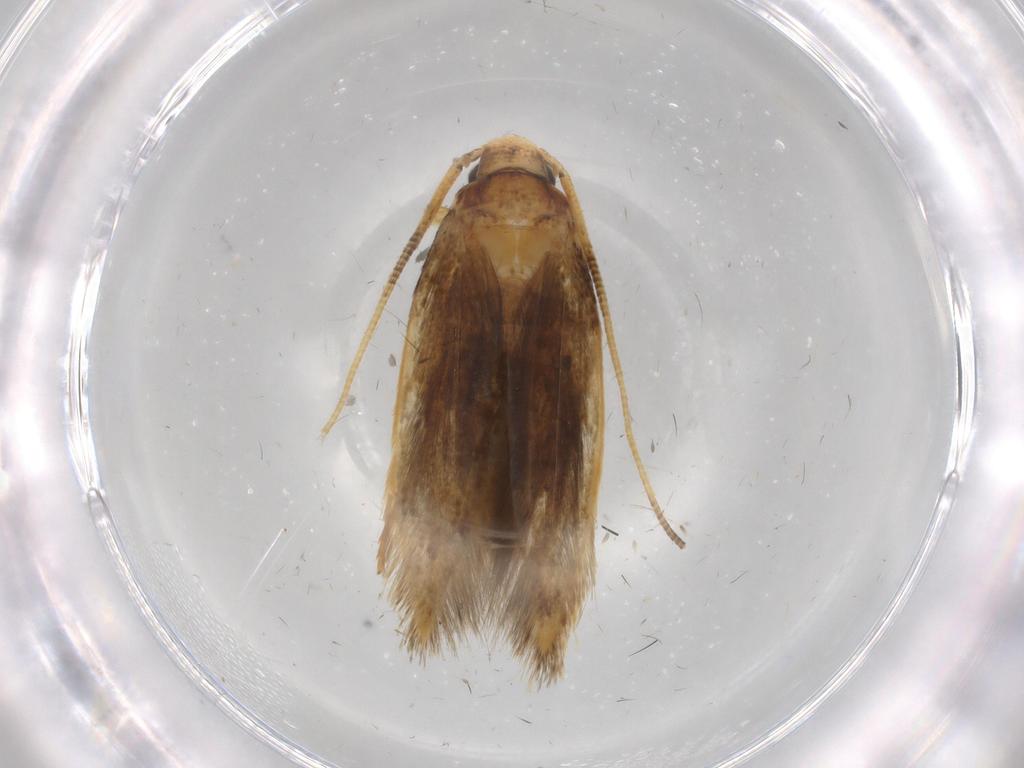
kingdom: Animalia
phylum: Arthropoda
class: Insecta
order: Lepidoptera
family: Tineidae
